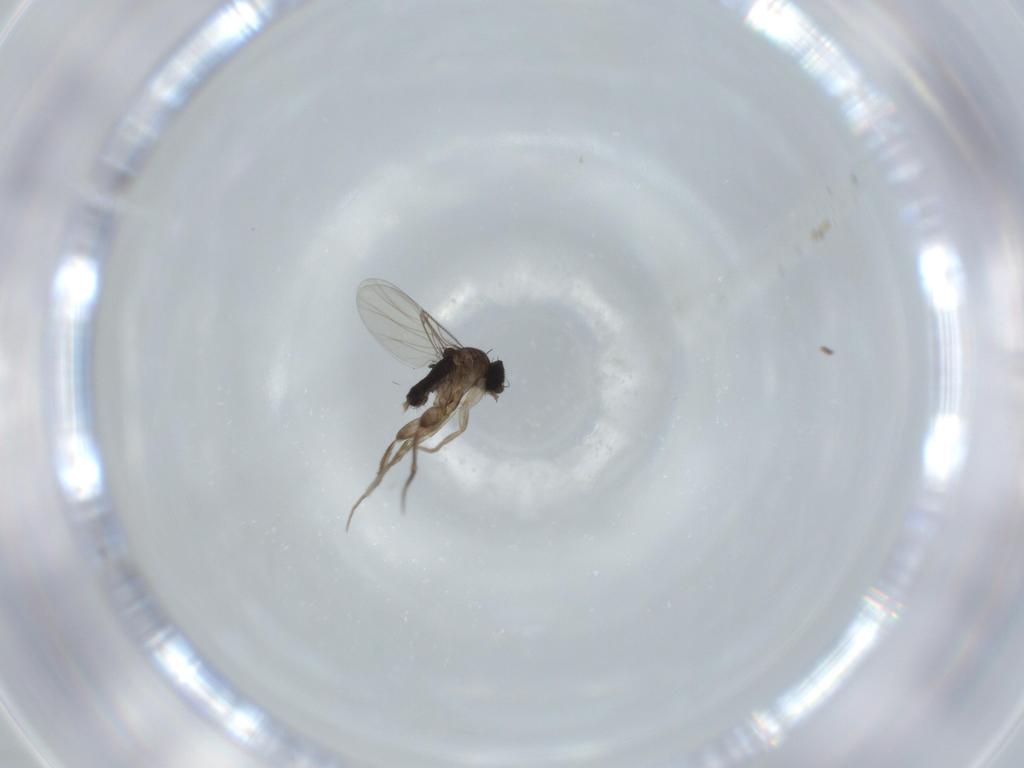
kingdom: Animalia
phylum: Arthropoda
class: Insecta
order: Diptera
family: Phoridae
